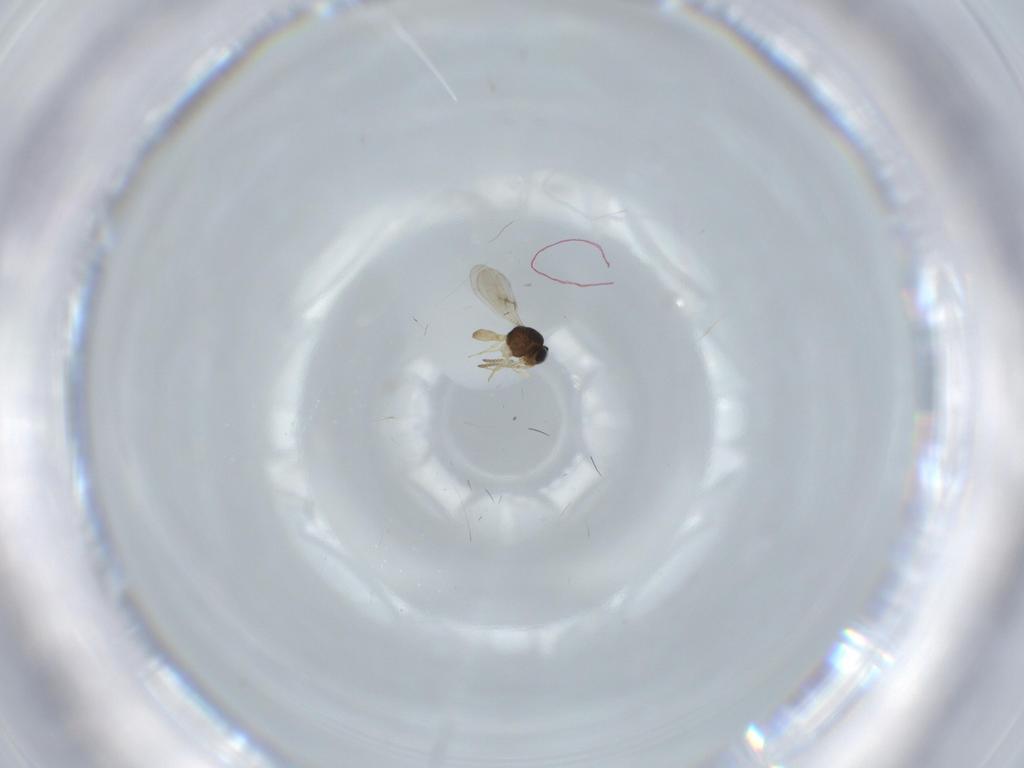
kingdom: Animalia
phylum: Arthropoda
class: Insecta
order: Hymenoptera
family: Scelionidae
